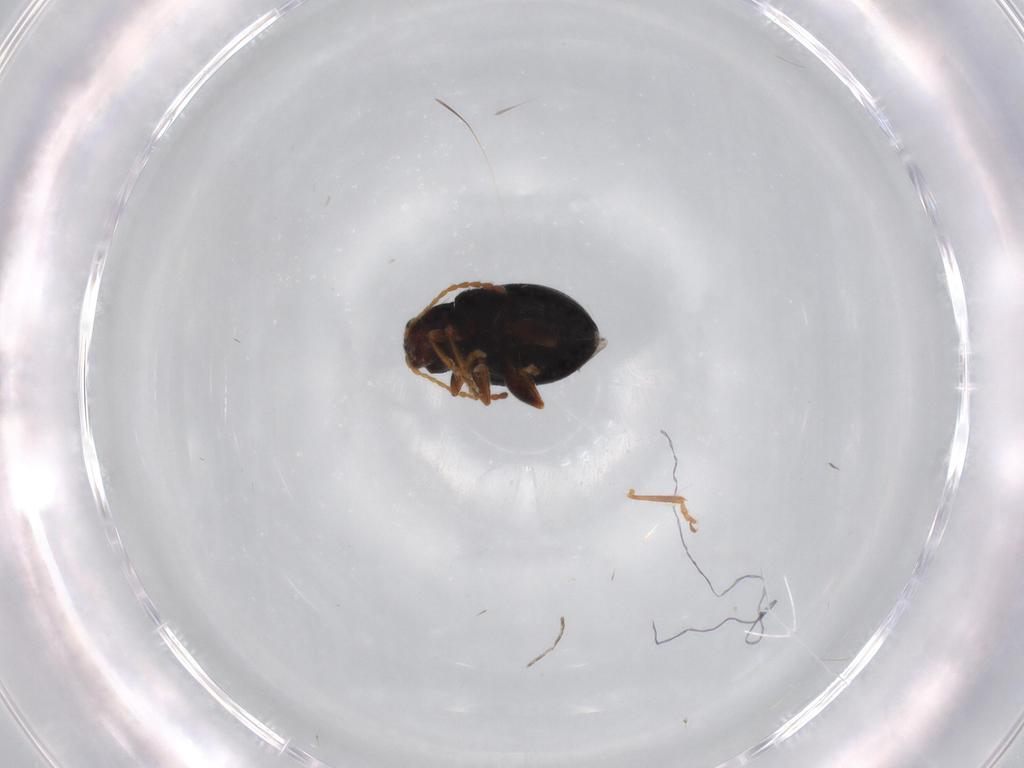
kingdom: Animalia
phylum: Arthropoda
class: Insecta
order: Coleoptera
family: Chrysomelidae
